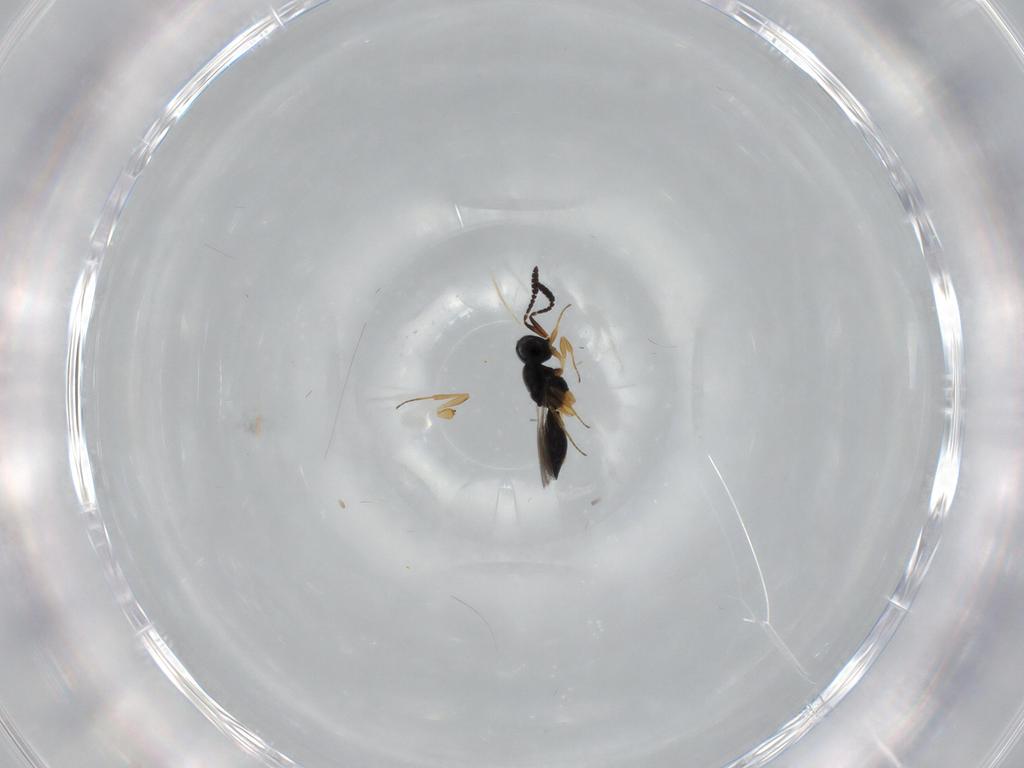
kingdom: Animalia
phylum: Arthropoda
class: Insecta
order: Hymenoptera
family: Scelionidae
